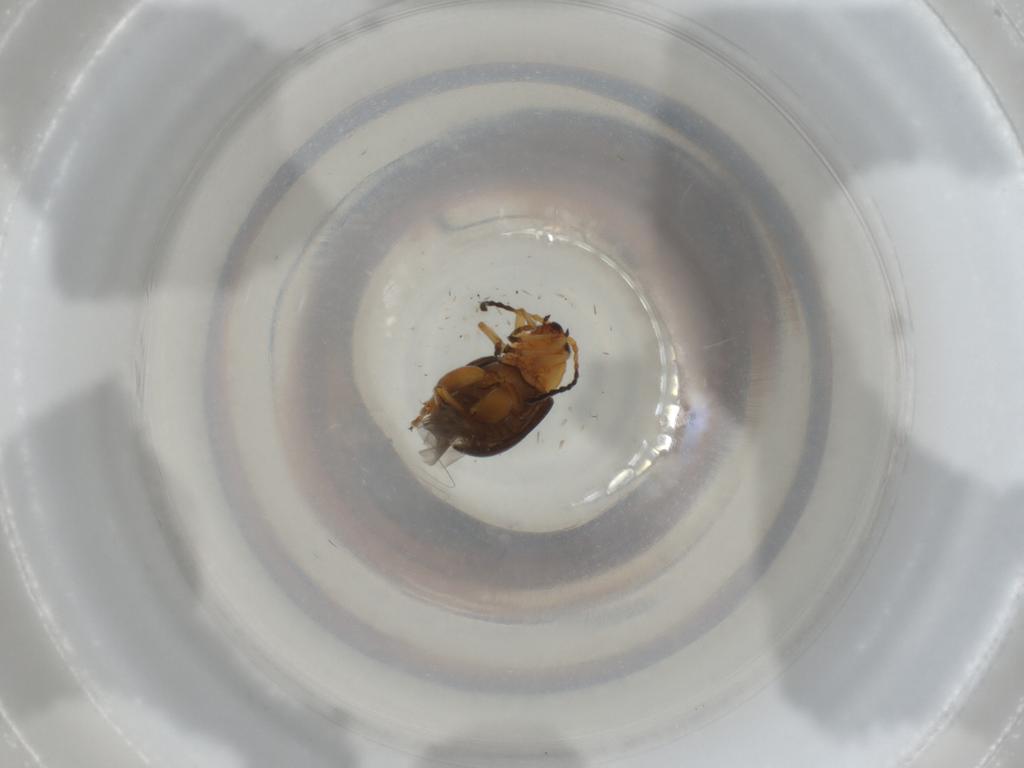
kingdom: Animalia
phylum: Arthropoda
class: Insecta
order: Coleoptera
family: Chrysomelidae
